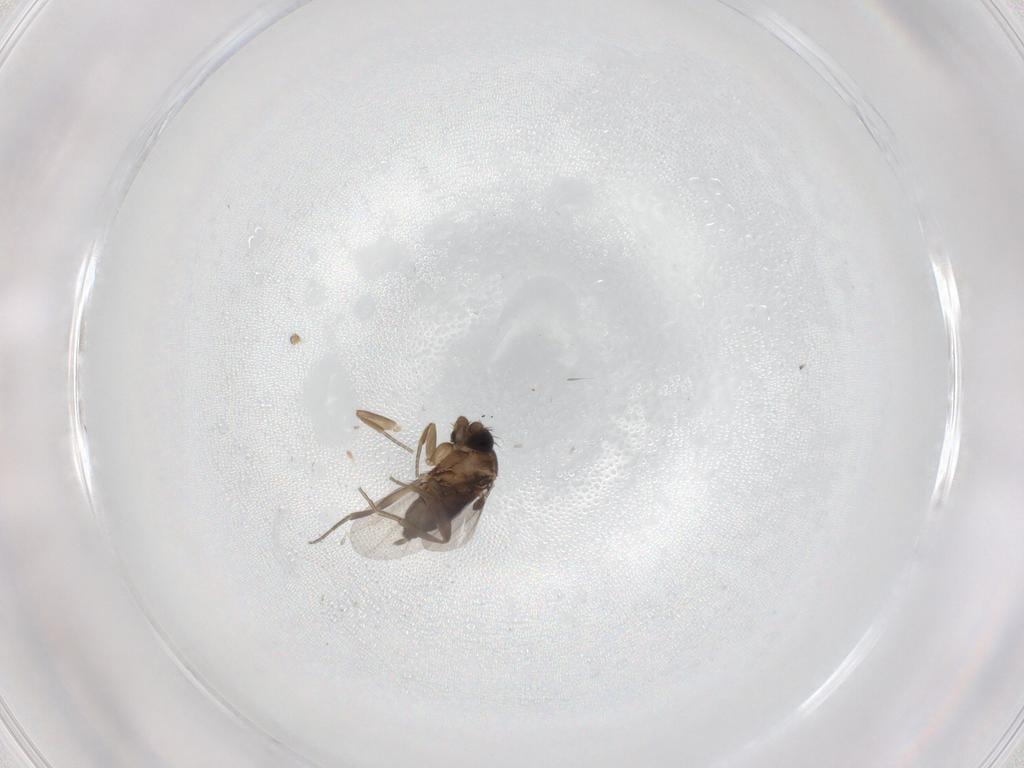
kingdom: Animalia
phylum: Arthropoda
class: Insecta
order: Diptera
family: Phoridae
